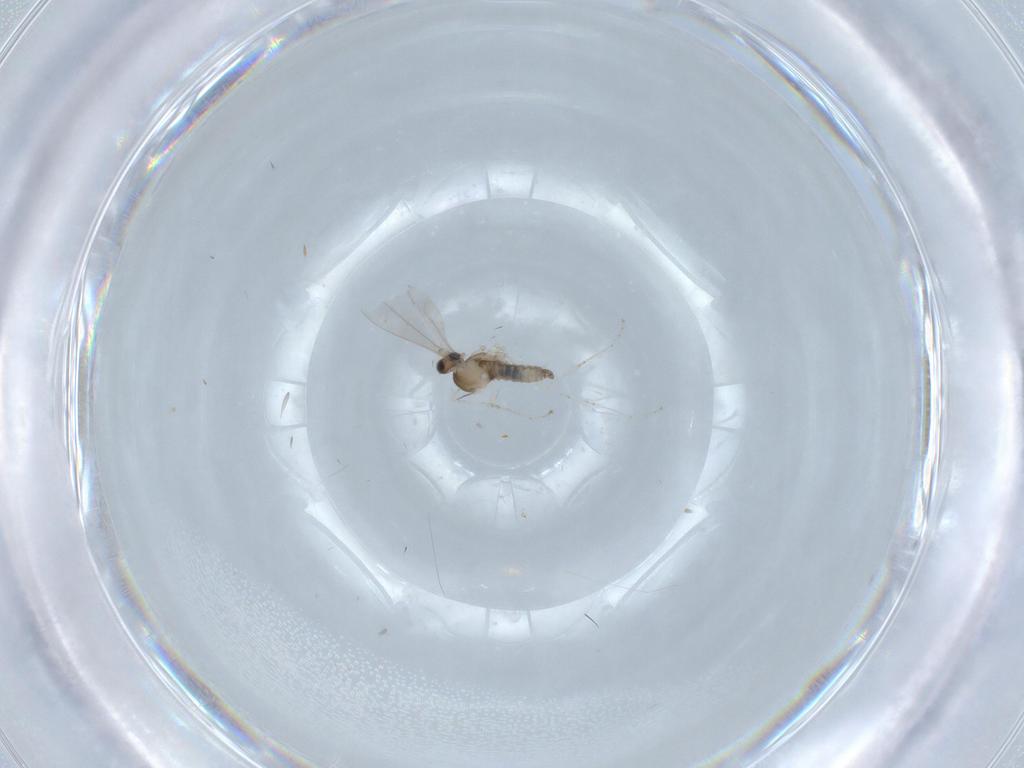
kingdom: Animalia
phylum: Arthropoda
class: Insecta
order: Diptera
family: Cecidomyiidae
